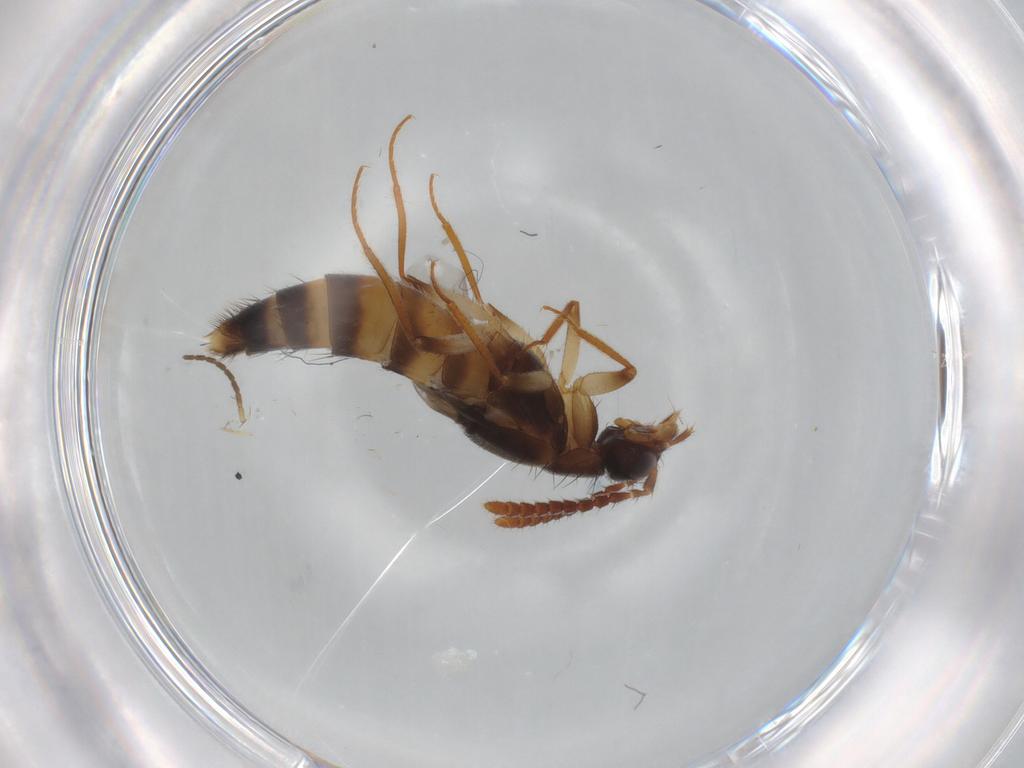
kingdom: Animalia
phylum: Arthropoda
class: Insecta
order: Coleoptera
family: Staphylinidae
